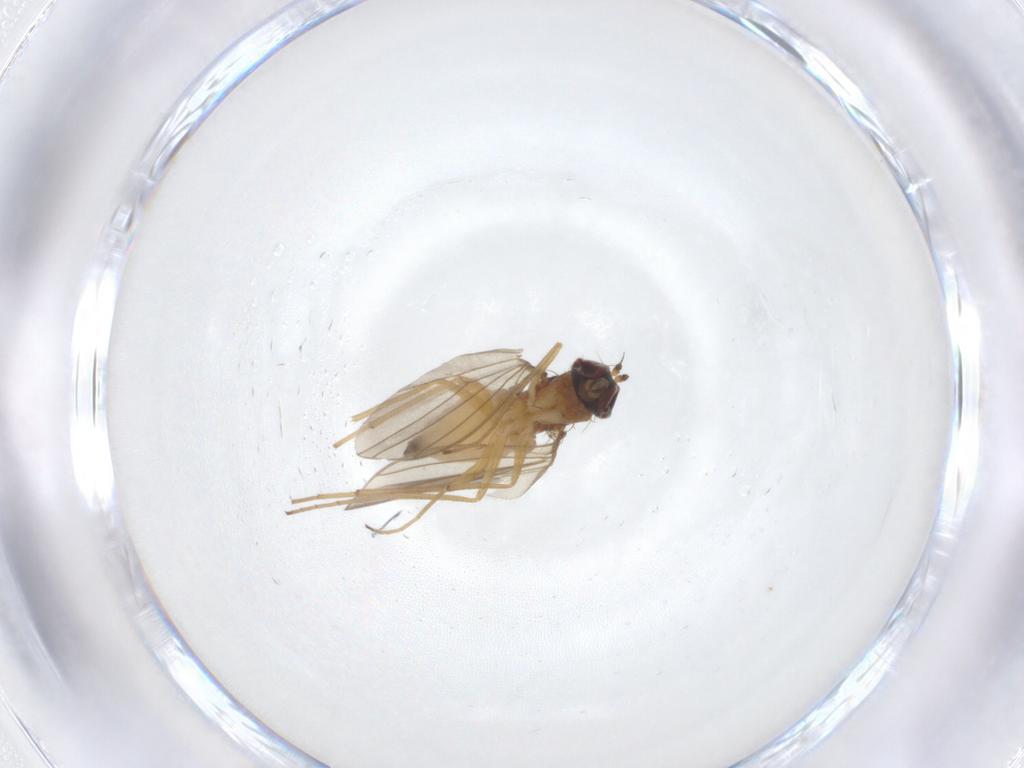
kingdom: Animalia
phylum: Arthropoda
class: Insecta
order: Diptera
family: Dolichopodidae
